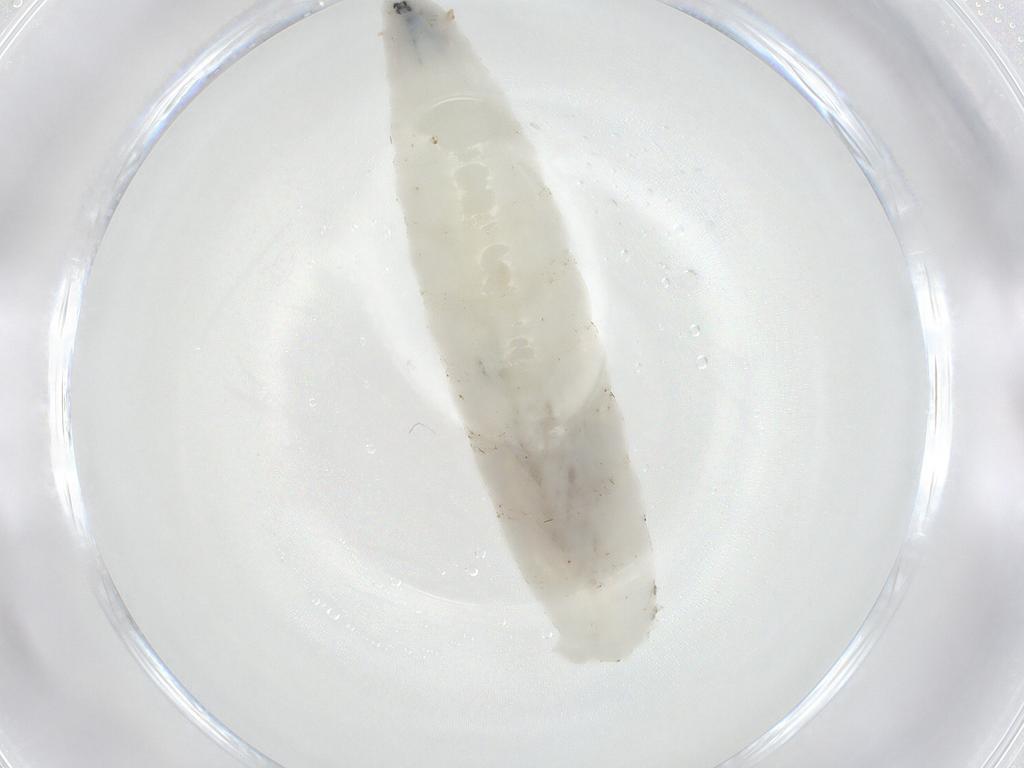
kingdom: Animalia
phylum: Arthropoda
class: Insecta
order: Diptera
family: Anthomyiidae
